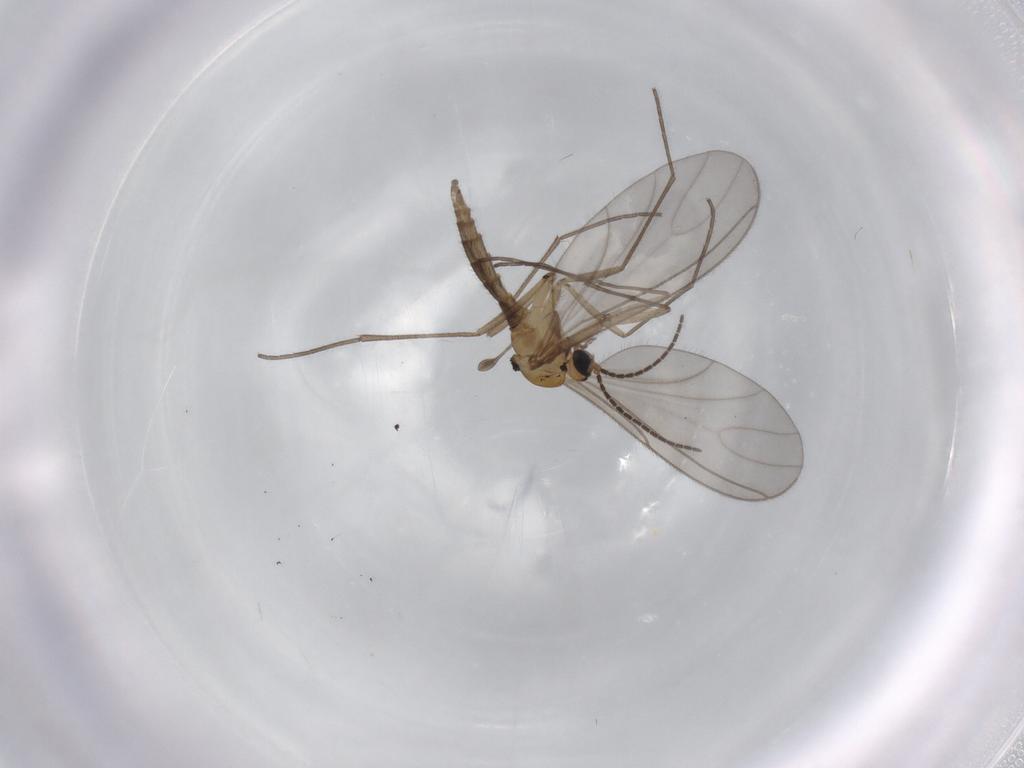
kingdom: Animalia
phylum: Arthropoda
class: Insecta
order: Diptera
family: Sciaridae
